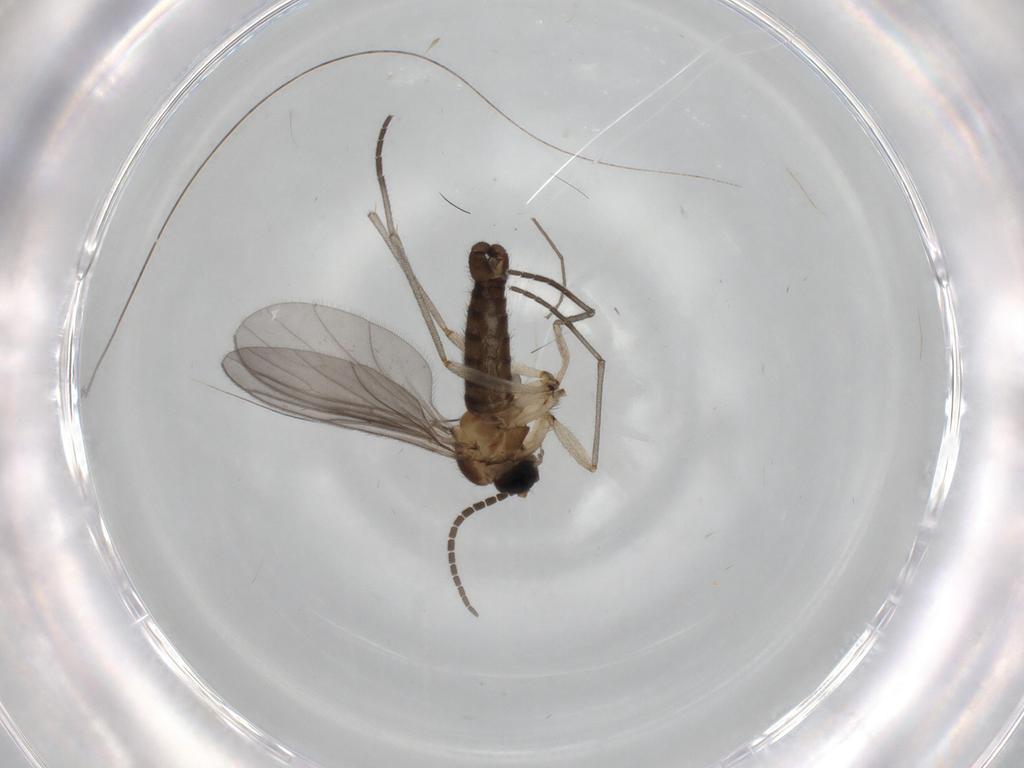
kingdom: Animalia
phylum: Arthropoda
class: Insecta
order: Diptera
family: Sciaridae
